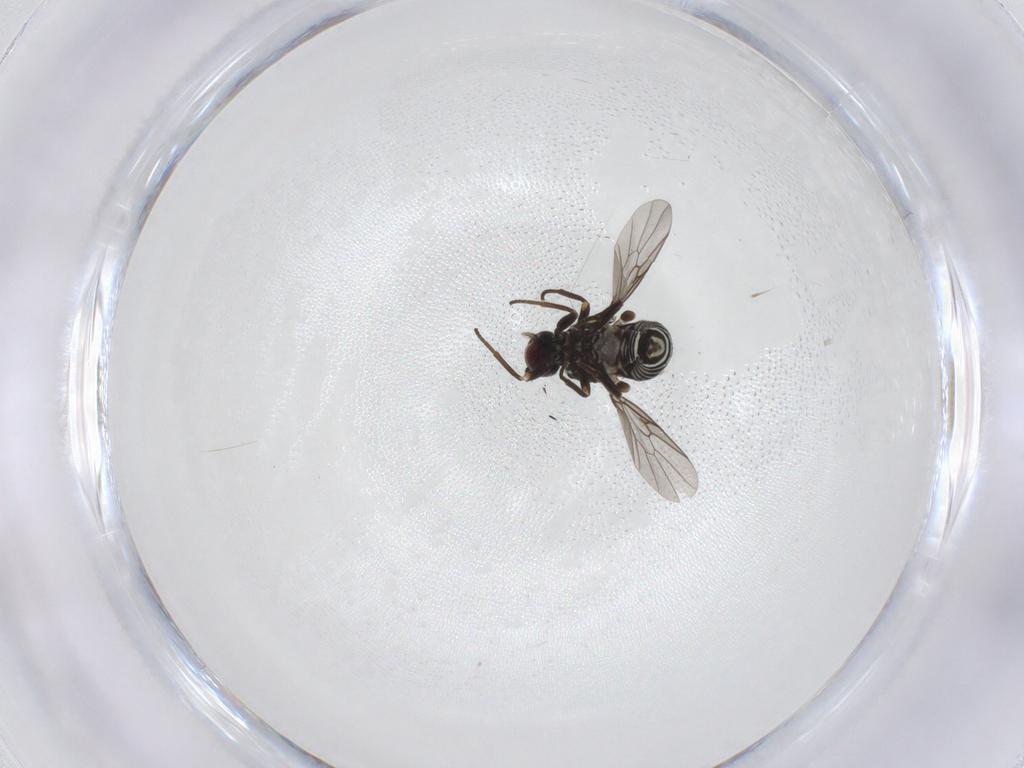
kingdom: Animalia
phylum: Arthropoda
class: Insecta
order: Diptera
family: Bombyliidae
